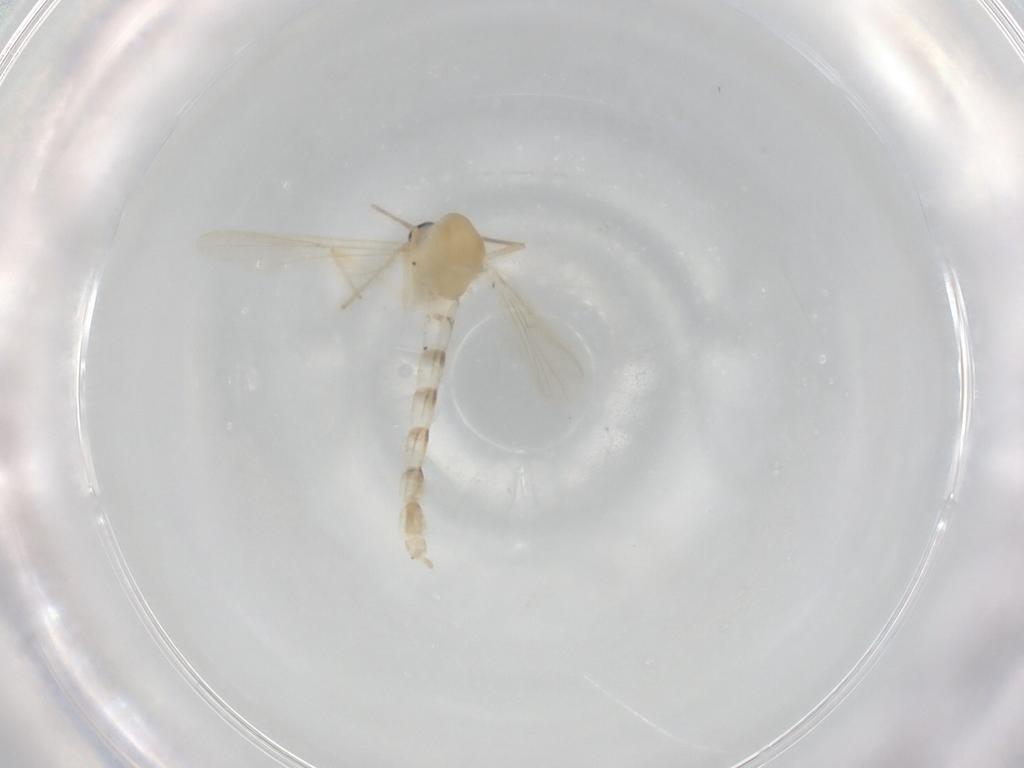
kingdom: Animalia
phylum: Arthropoda
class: Insecta
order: Diptera
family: Chironomidae
